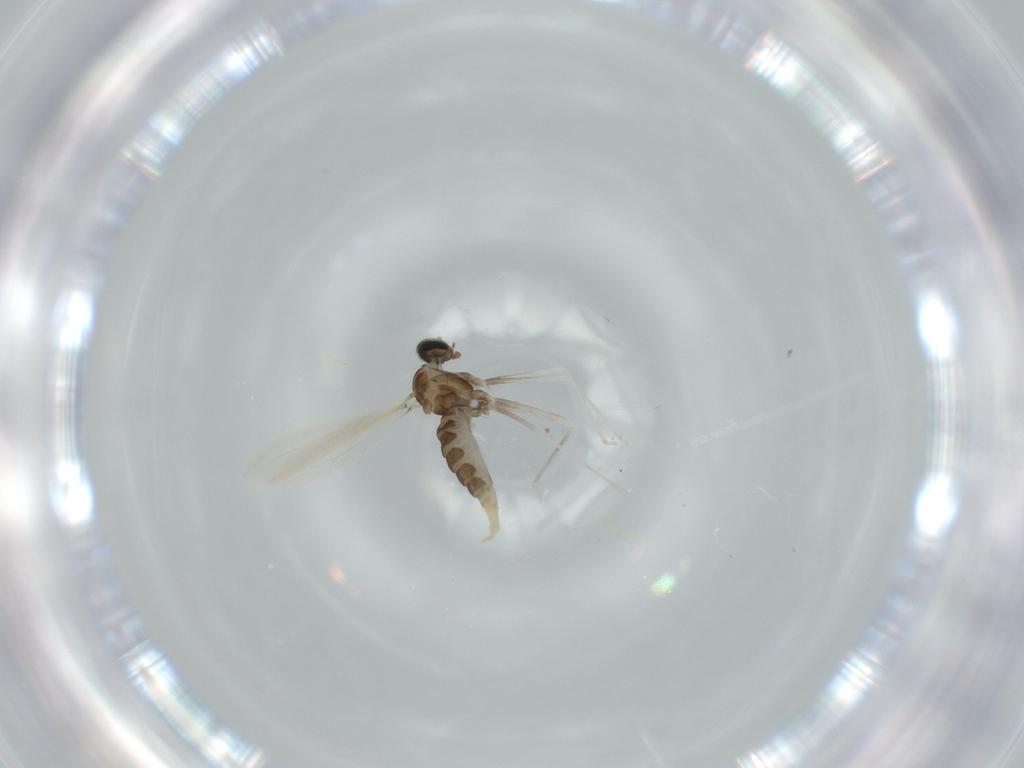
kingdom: Animalia
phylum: Arthropoda
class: Insecta
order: Diptera
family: Cecidomyiidae
